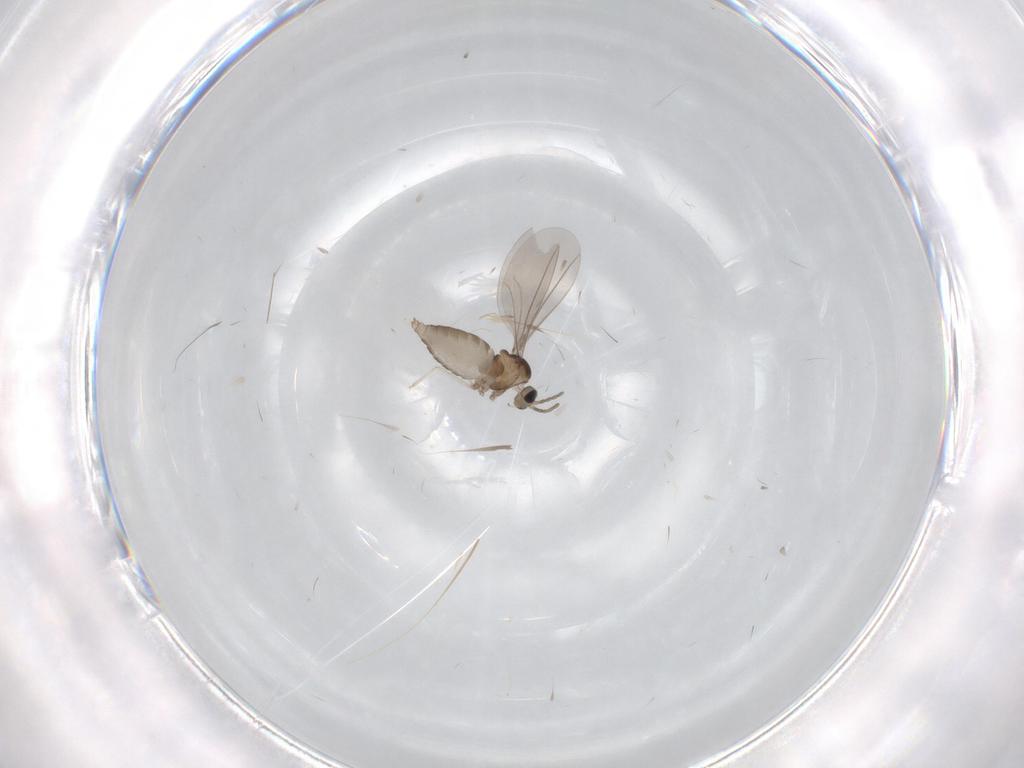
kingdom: Animalia
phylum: Arthropoda
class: Insecta
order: Diptera
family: Cecidomyiidae
